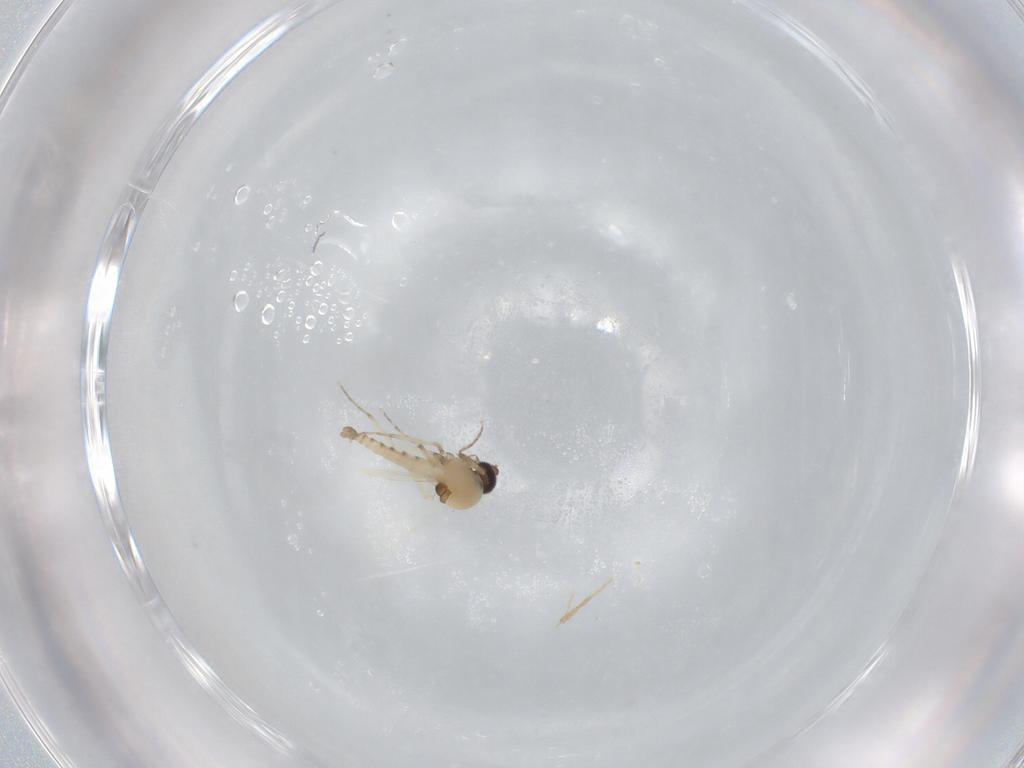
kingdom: Animalia
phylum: Arthropoda
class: Insecta
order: Diptera
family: Ceratopogonidae
